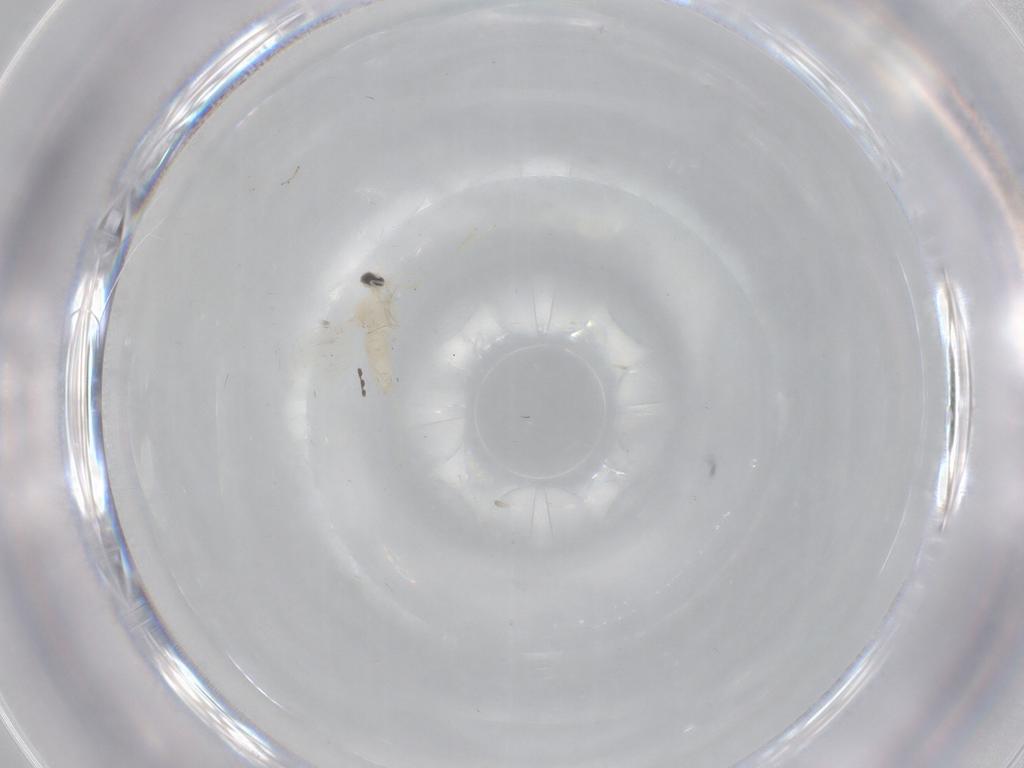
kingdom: Animalia
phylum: Arthropoda
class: Insecta
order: Diptera
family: Cecidomyiidae
